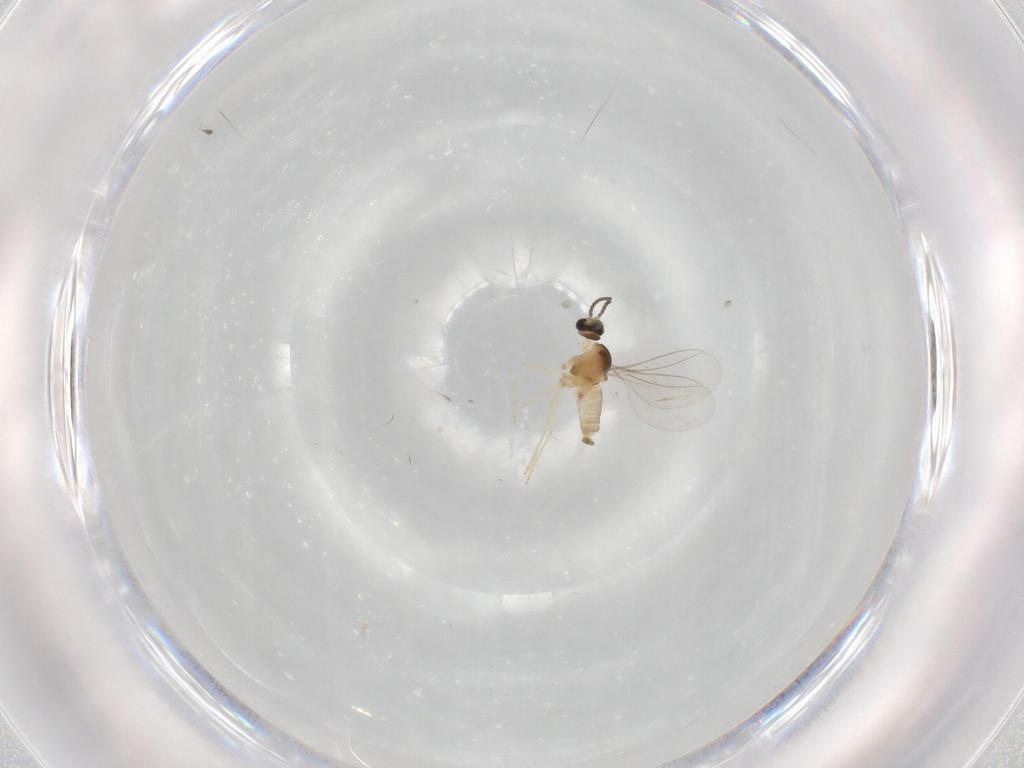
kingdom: Animalia
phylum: Arthropoda
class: Insecta
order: Diptera
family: Cecidomyiidae
